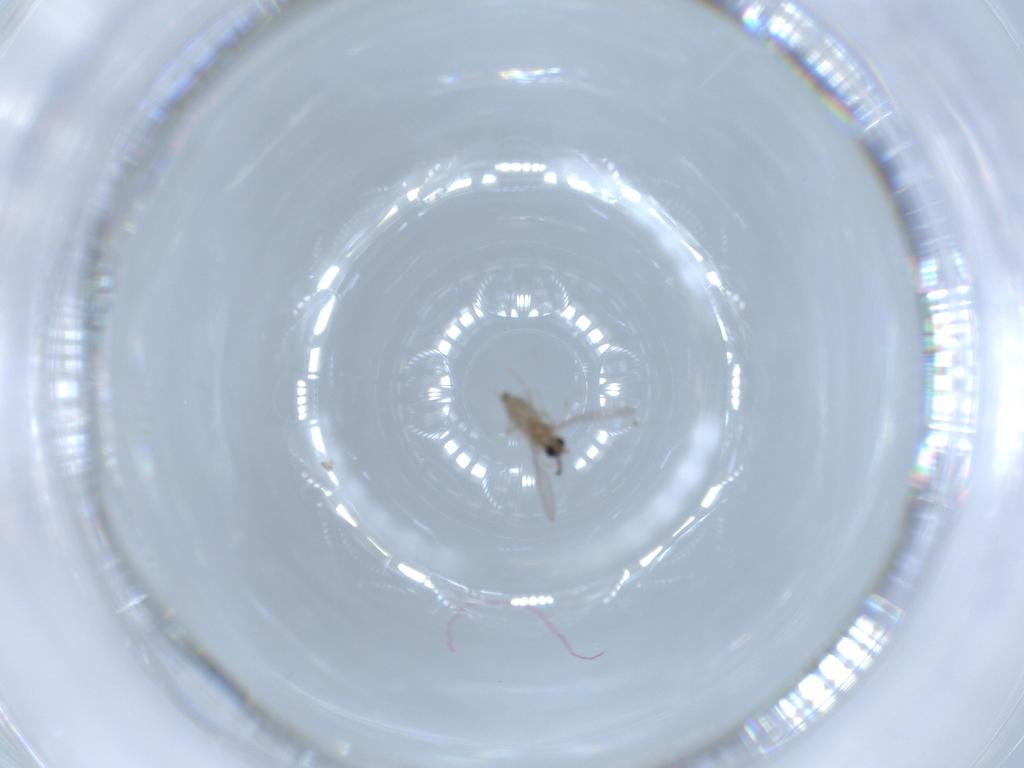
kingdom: Animalia
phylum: Arthropoda
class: Insecta
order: Diptera
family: Cecidomyiidae
